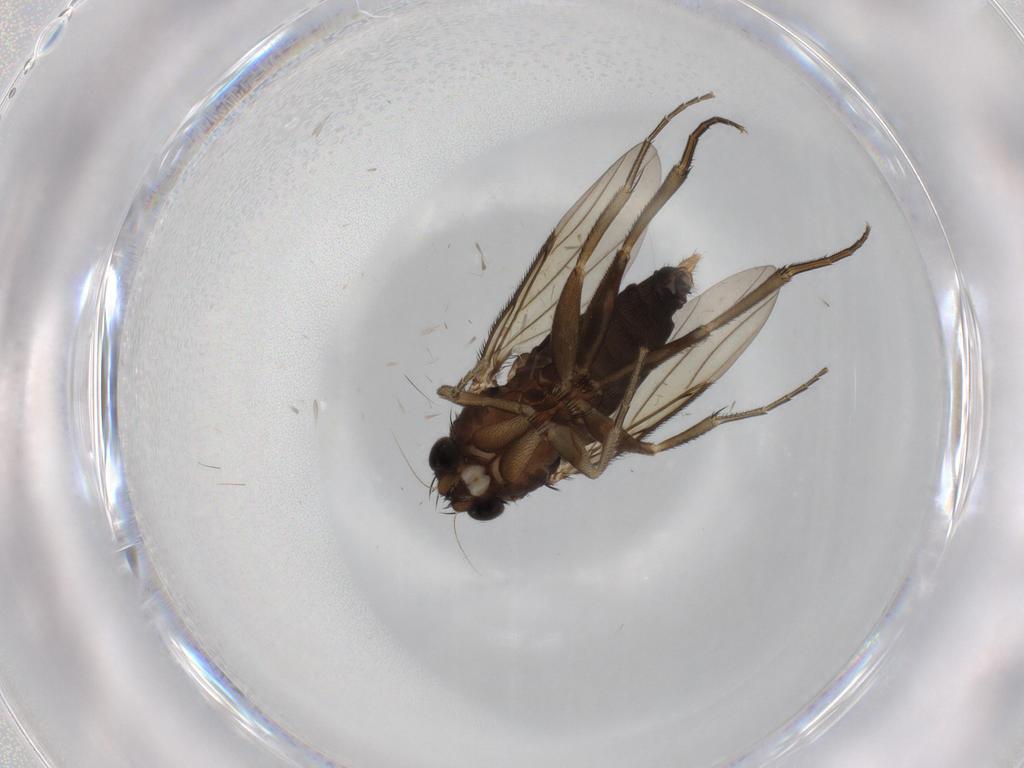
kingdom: Animalia
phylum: Arthropoda
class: Insecta
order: Diptera
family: Phoridae
